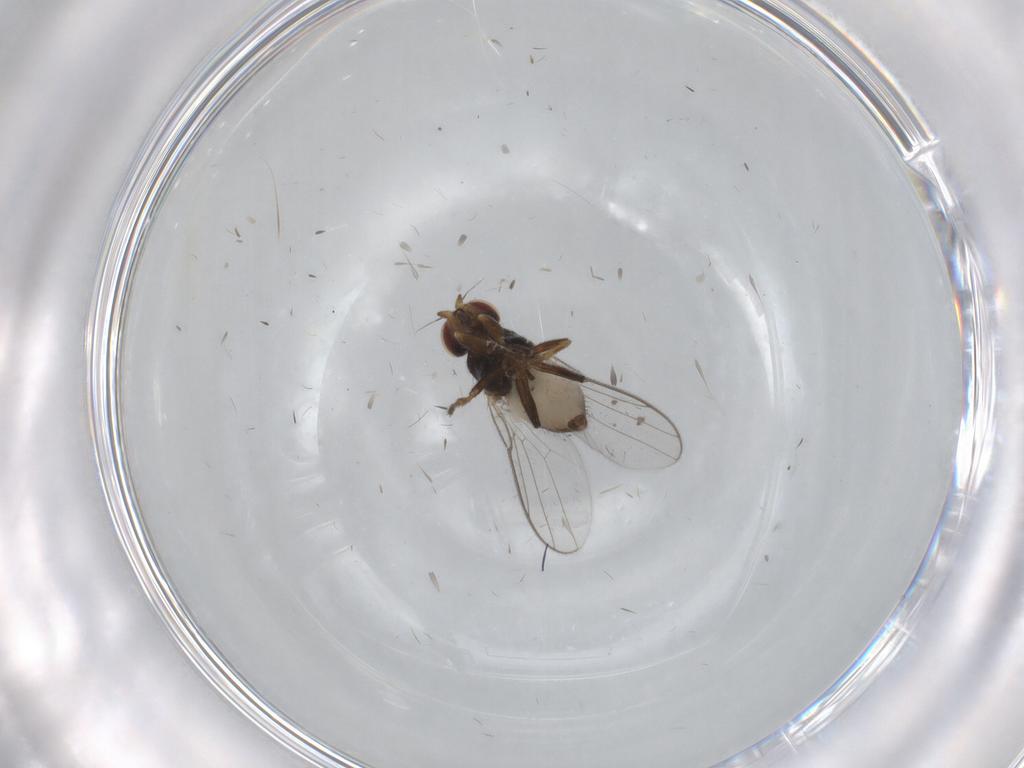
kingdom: Animalia
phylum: Arthropoda
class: Insecta
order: Diptera
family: Chloropidae
